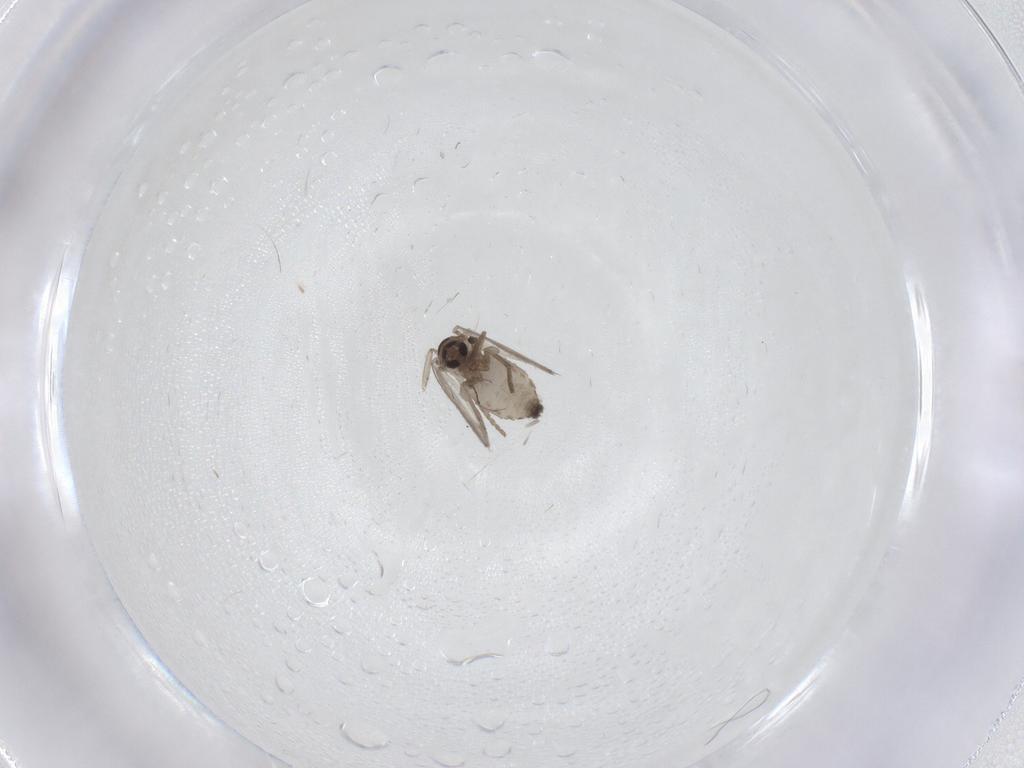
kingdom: Animalia
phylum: Arthropoda
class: Insecta
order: Diptera
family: Psychodidae
